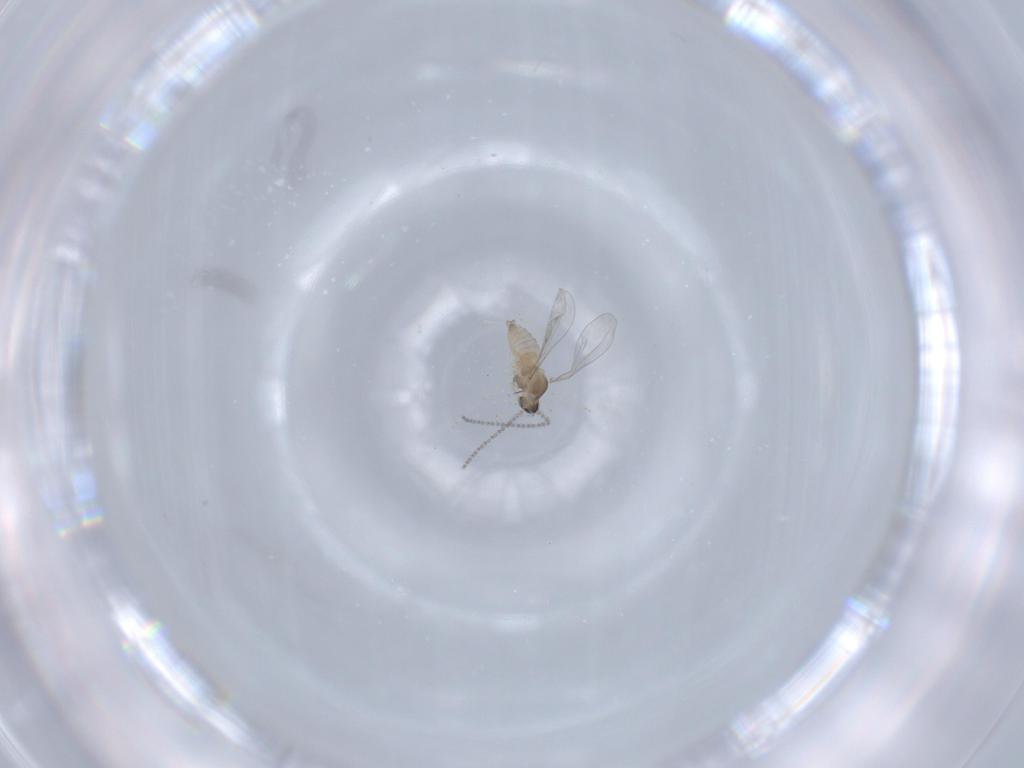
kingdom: Animalia
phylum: Arthropoda
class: Insecta
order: Diptera
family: Cecidomyiidae
